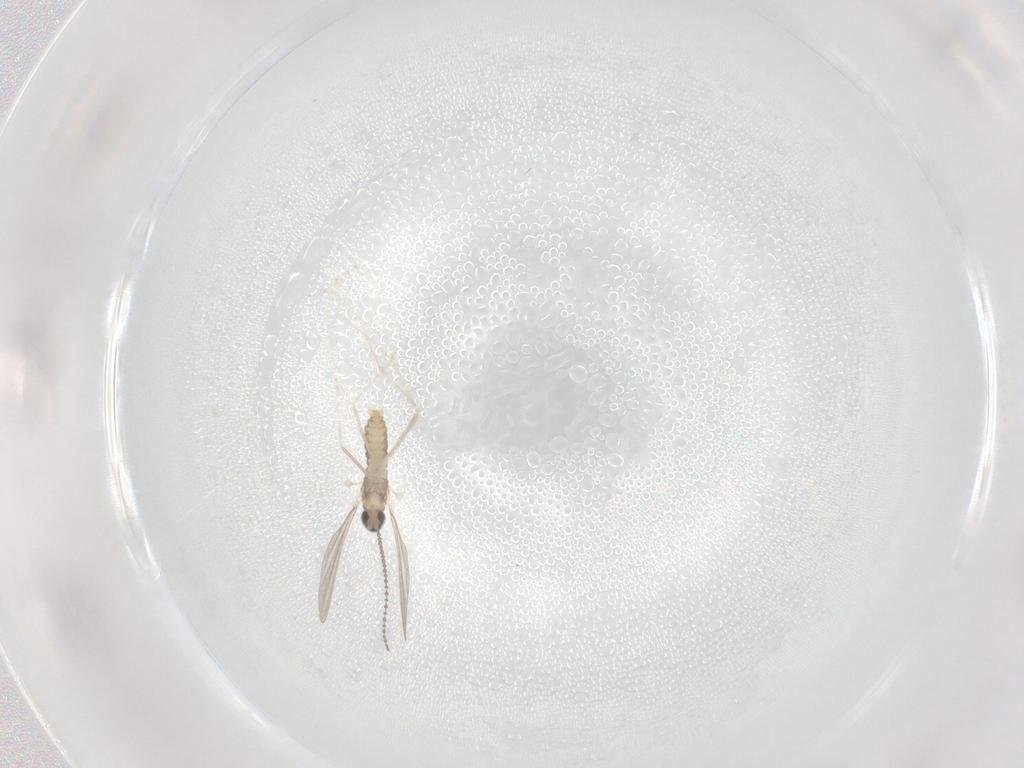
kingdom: Animalia
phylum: Arthropoda
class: Insecta
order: Diptera
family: Cecidomyiidae
